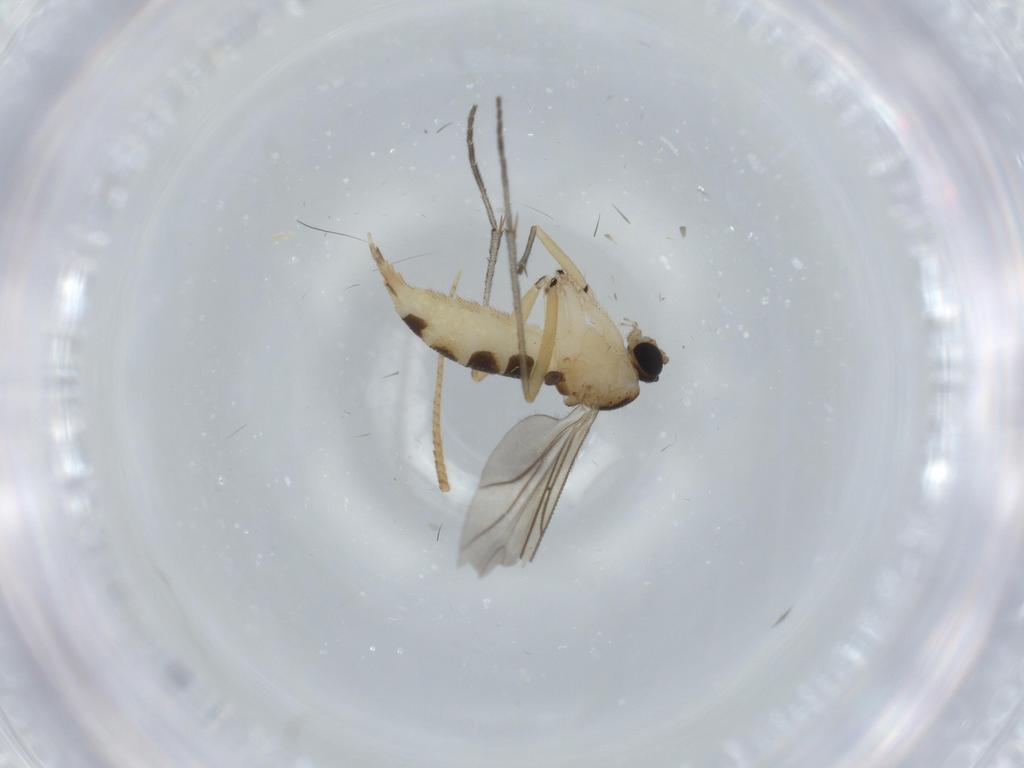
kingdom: Animalia
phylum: Arthropoda
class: Insecta
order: Diptera
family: Sciaridae
